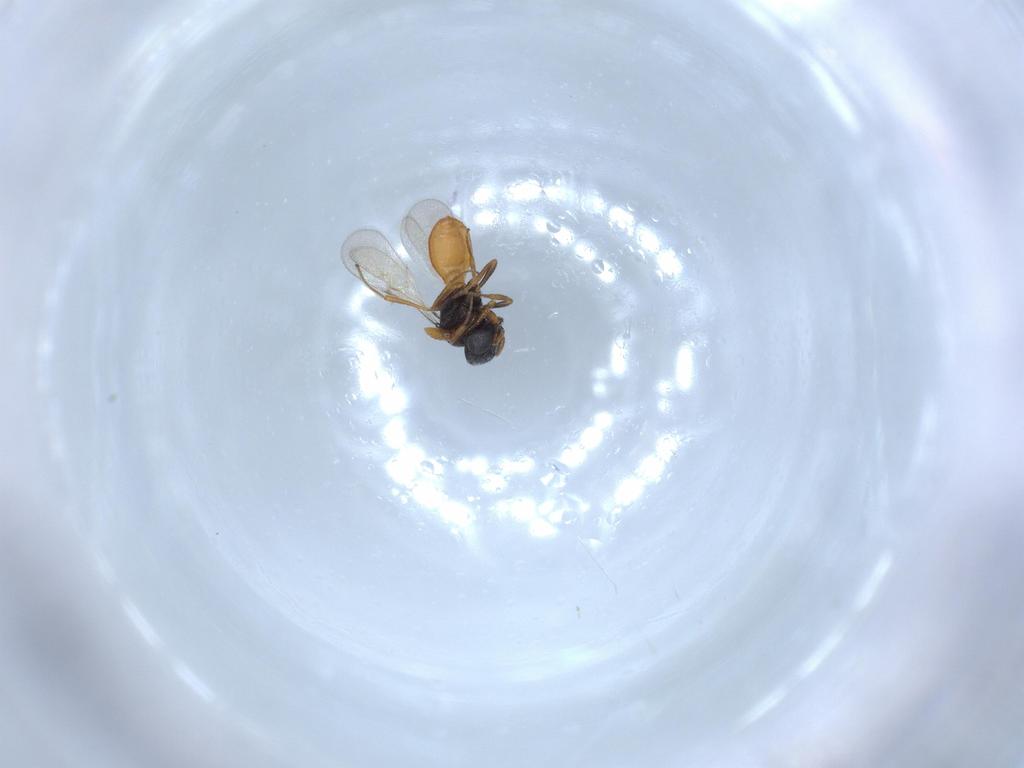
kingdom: Animalia
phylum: Arthropoda
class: Insecta
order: Hymenoptera
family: Scelionidae
